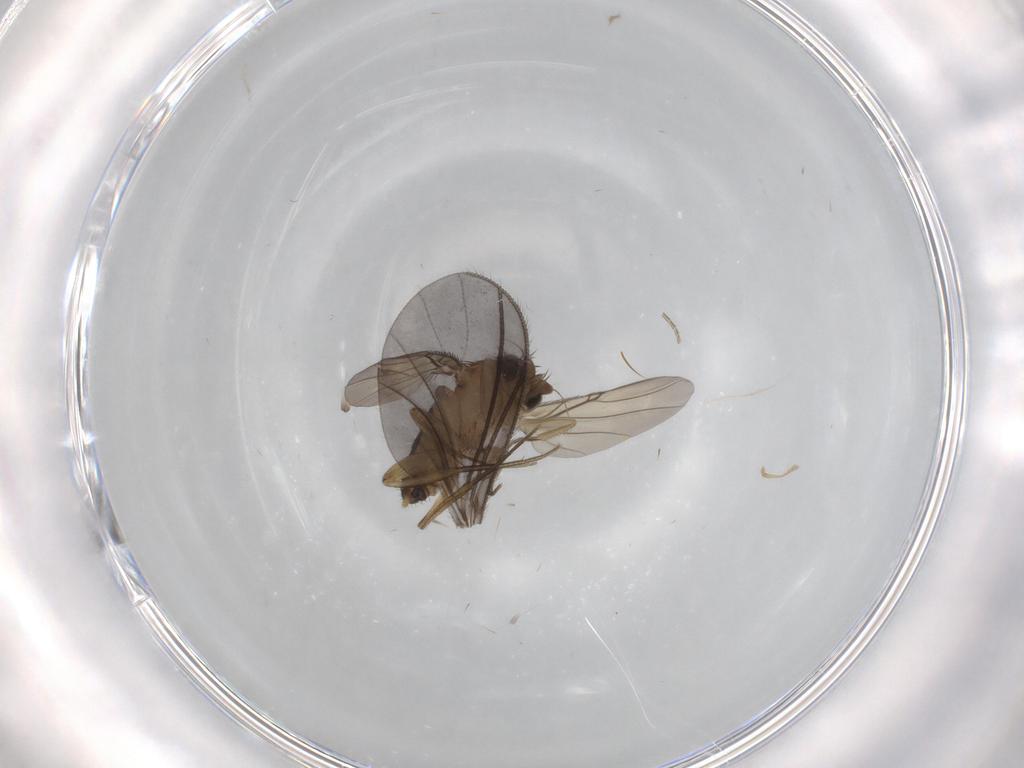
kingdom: Animalia
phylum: Arthropoda
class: Insecta
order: Diptera
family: Phoridae
